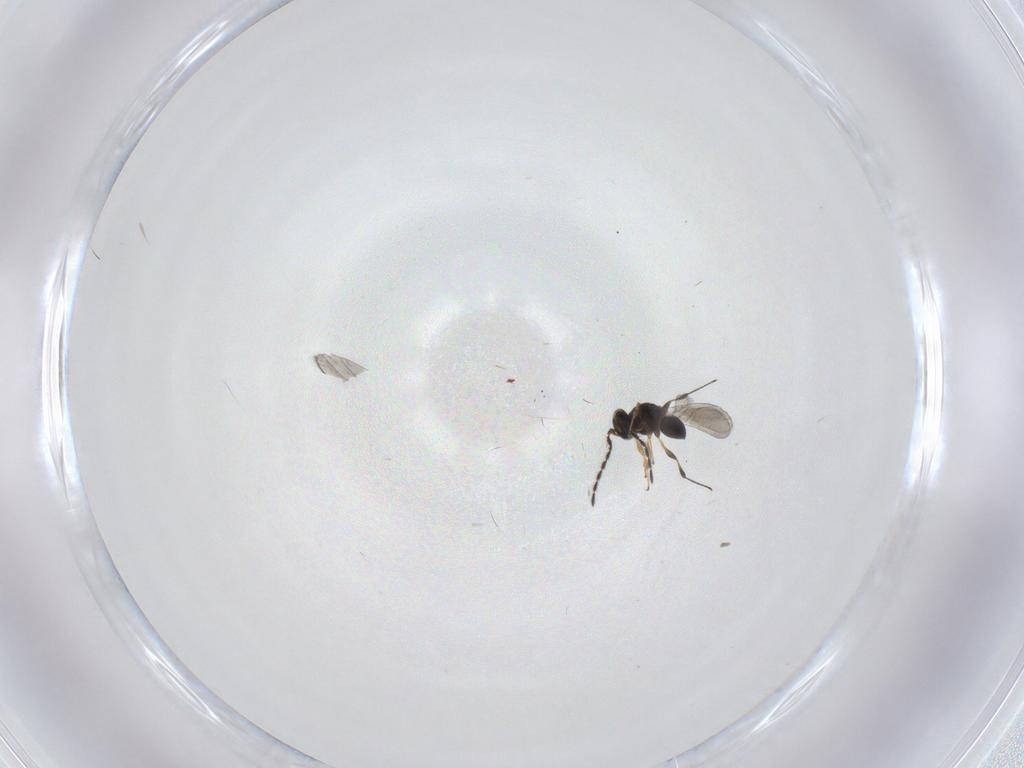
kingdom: Animalia
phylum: Arthropoda
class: Insecta
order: Hymenoptera
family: Platygastridae
